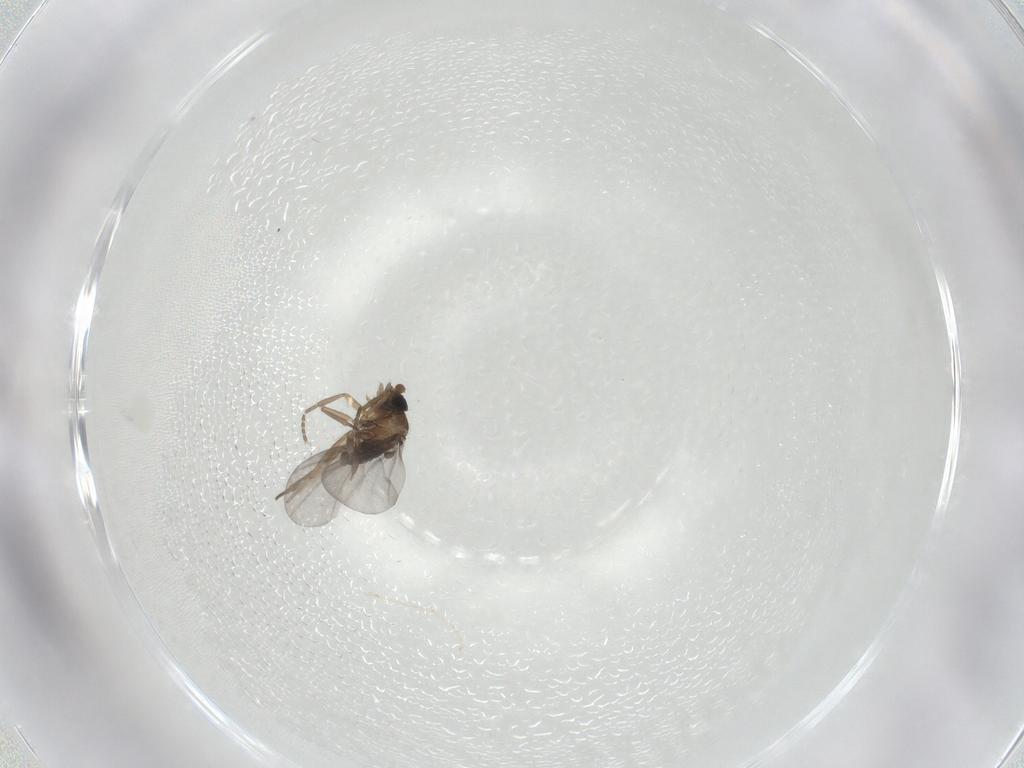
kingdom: Animalia
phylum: Arthropoda
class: Insecta
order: Diptera
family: Phoridae
